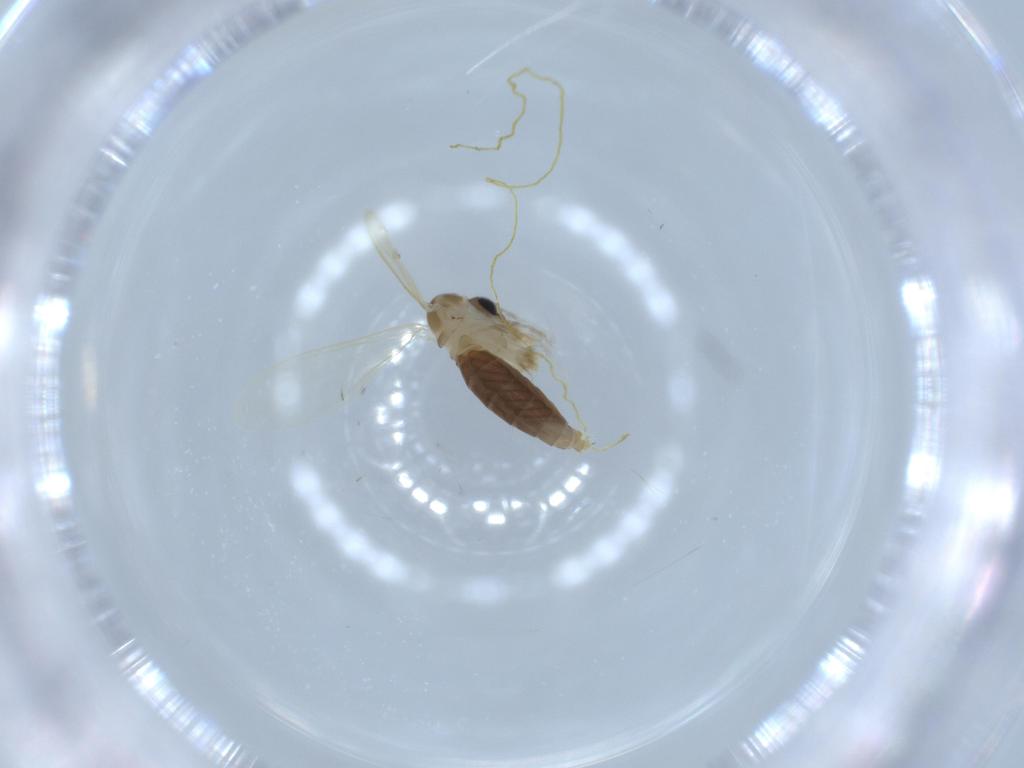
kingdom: Animalia
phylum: Arthropoda
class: Insecta
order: Diptera
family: Psychodidae
